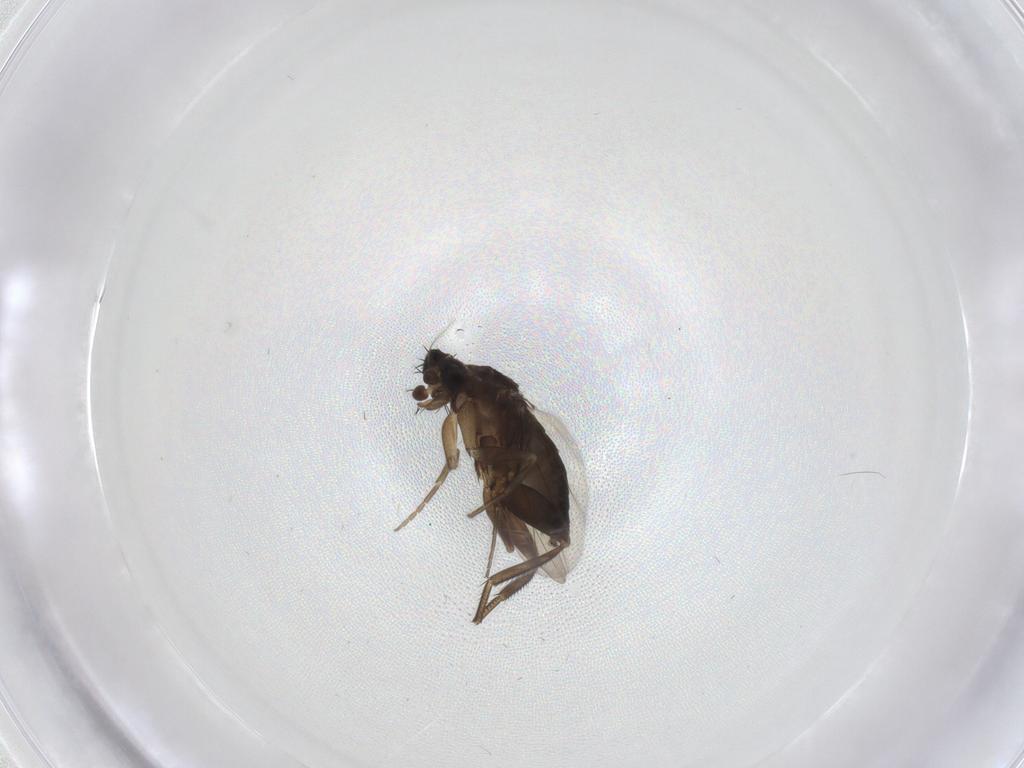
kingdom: Animalia
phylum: Arthropoda
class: Insecta
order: Diptera
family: Phoridae
